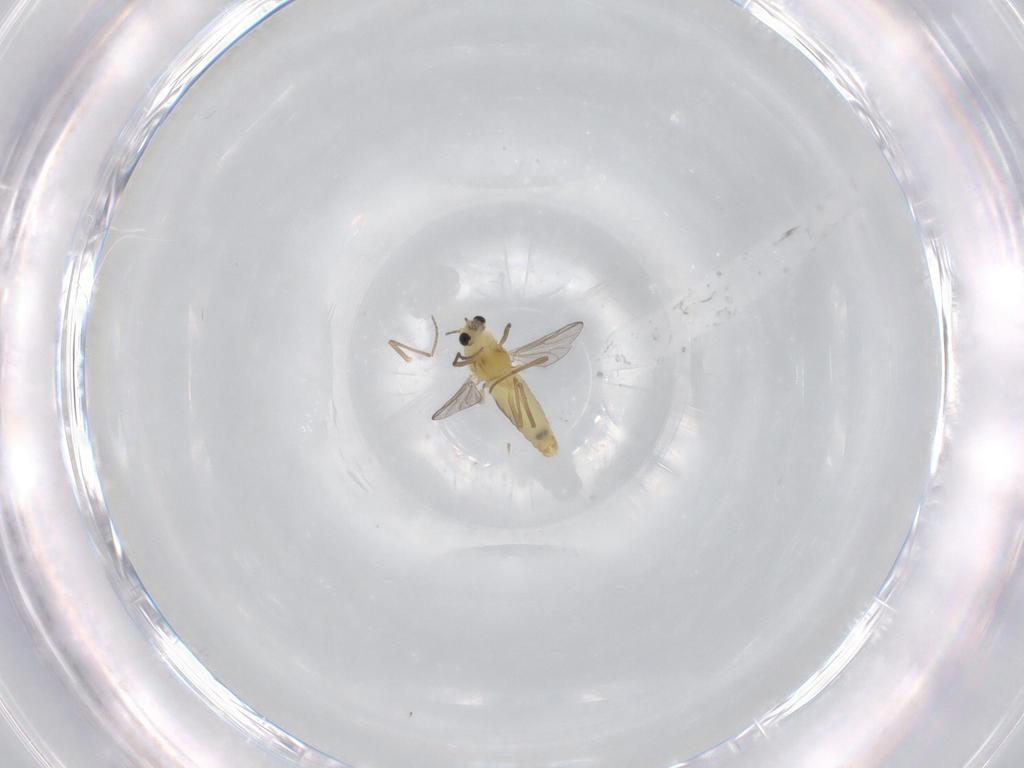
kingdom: Animalia
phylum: Arthropoda
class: Insecta
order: Diptera
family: Chironomidae
